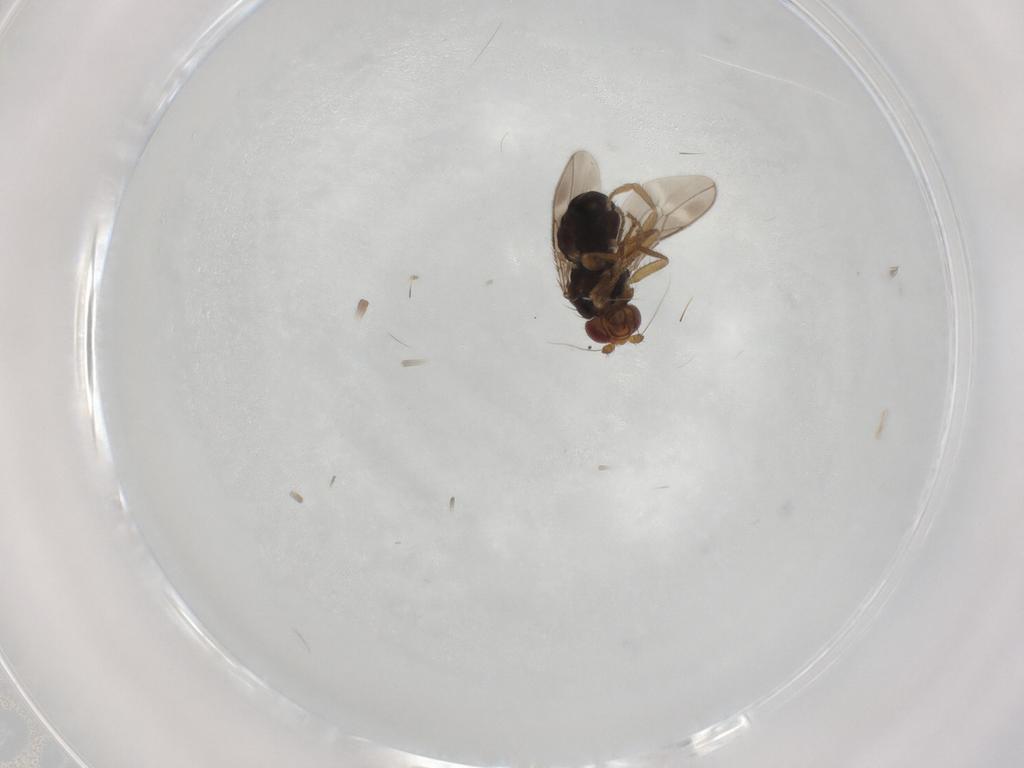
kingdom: Animalia
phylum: Arthropoda
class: Insecta
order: Diptera
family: Sphaeroceridae
